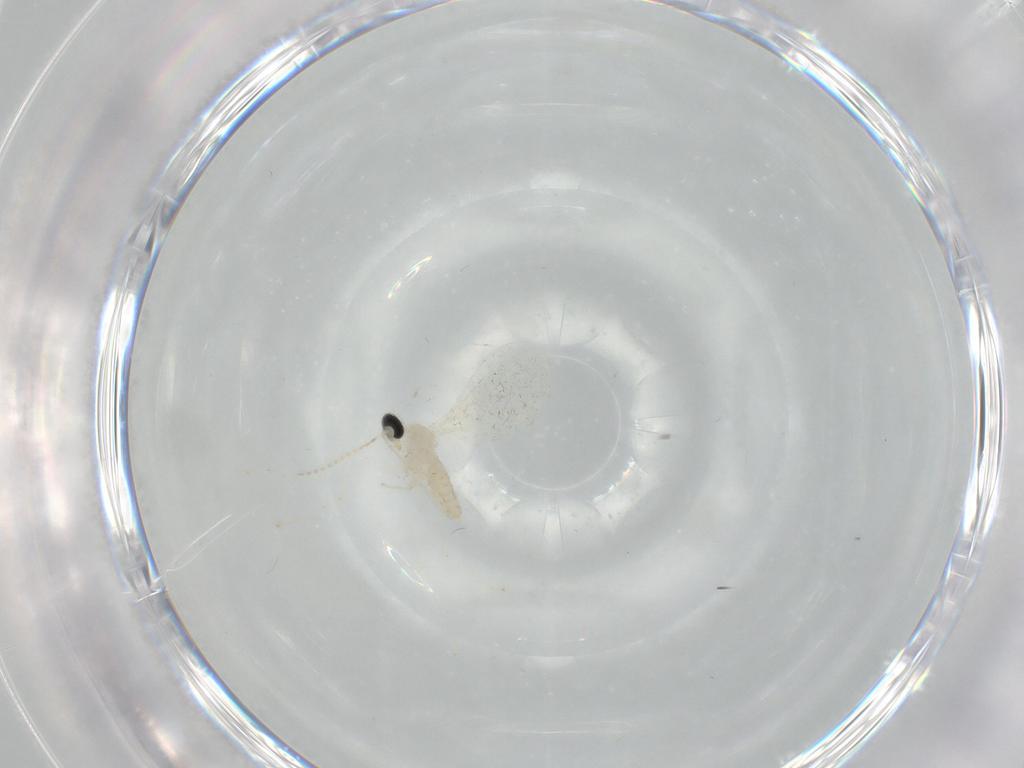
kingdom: Animalia
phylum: Arthropoda
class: Insecta
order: Diptera
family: Cecidomyiidae
